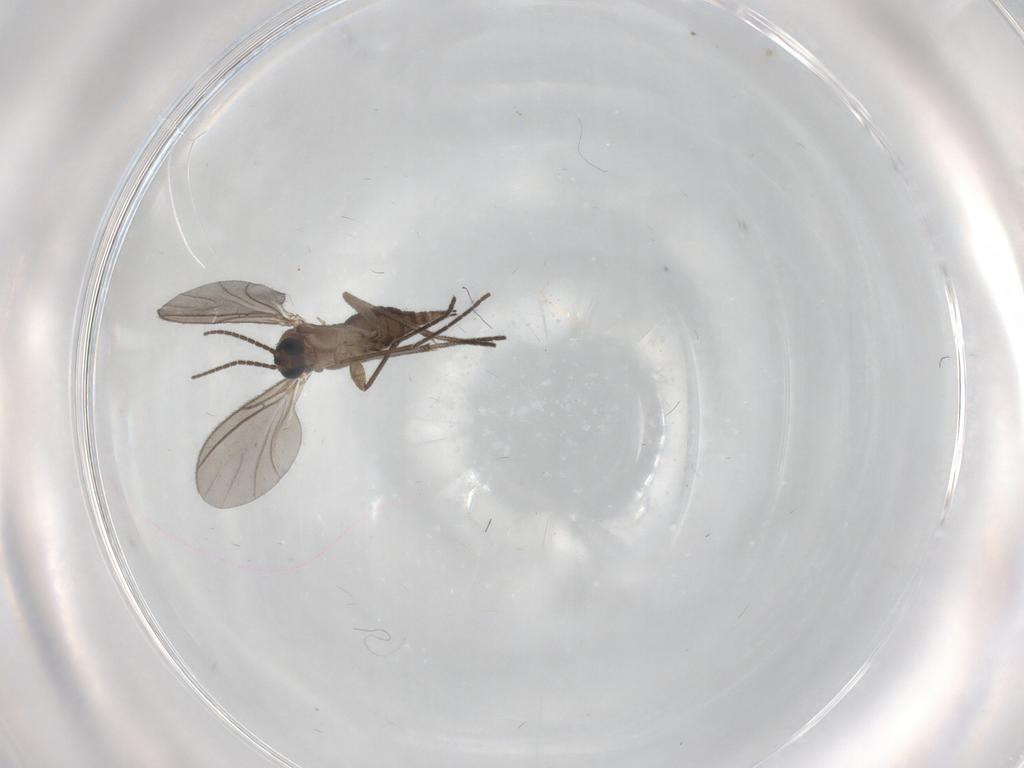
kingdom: Animalia
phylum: Arthropoda
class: Insecta
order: Diptera
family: Sciaridae
